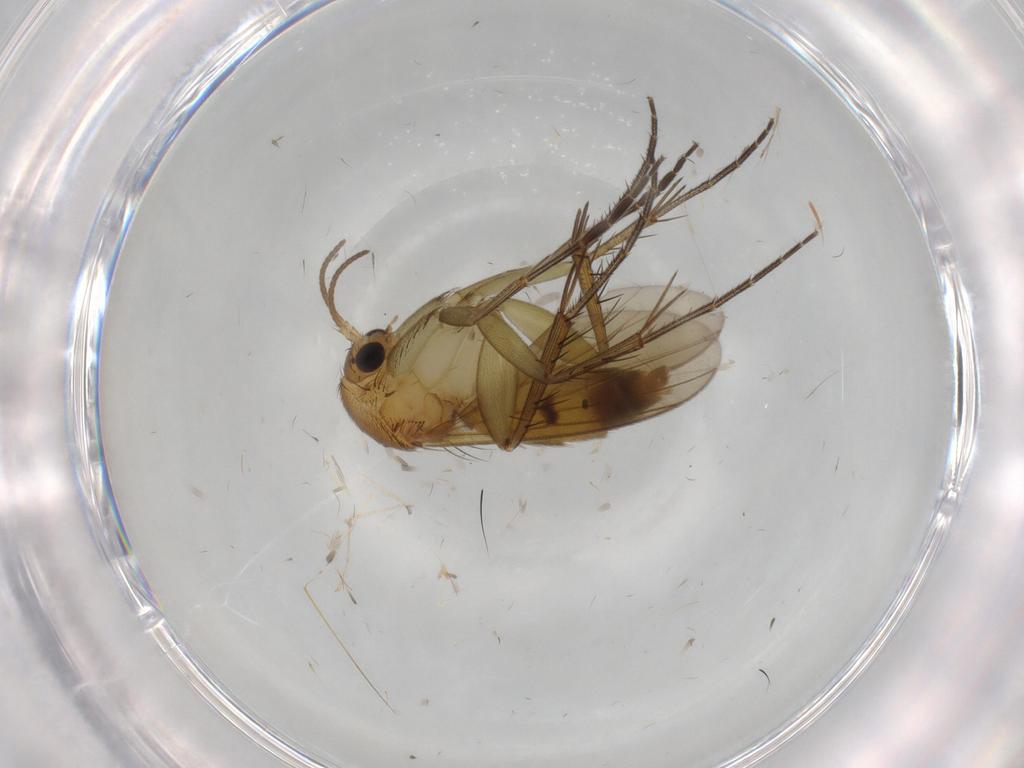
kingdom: Animalia
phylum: Arthropoda
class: Insecta
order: Diptera
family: Mycetophilidae
